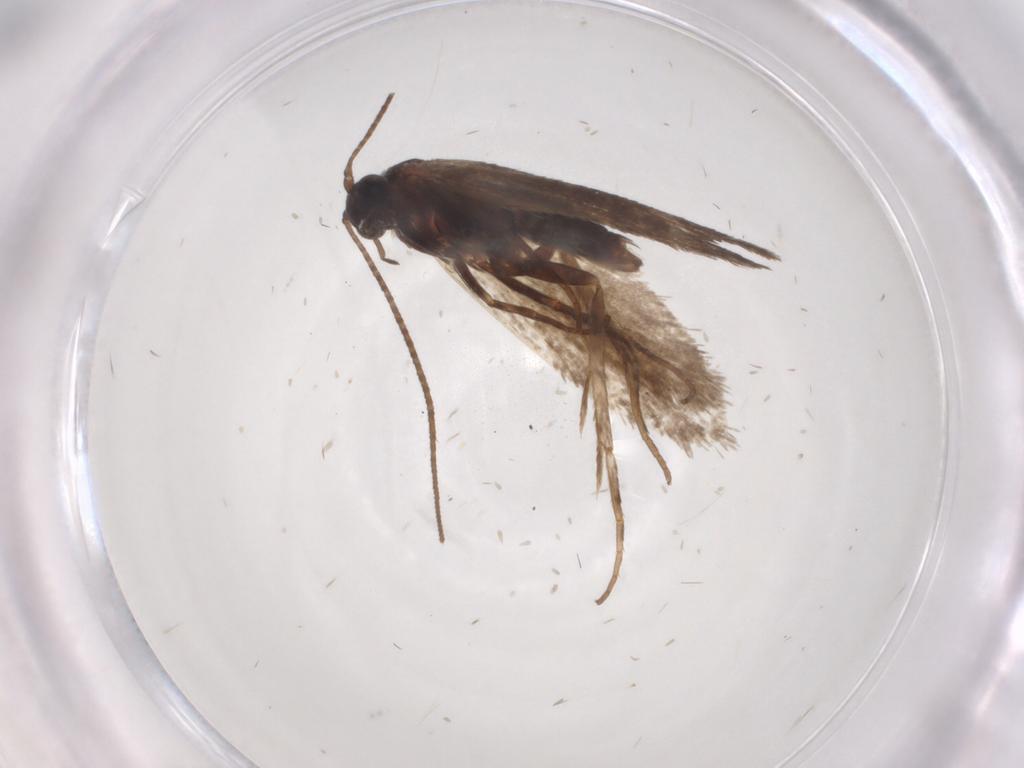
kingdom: Animalia
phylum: Arthropoda
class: Insecta
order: Lepidoptera
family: Adelidae
